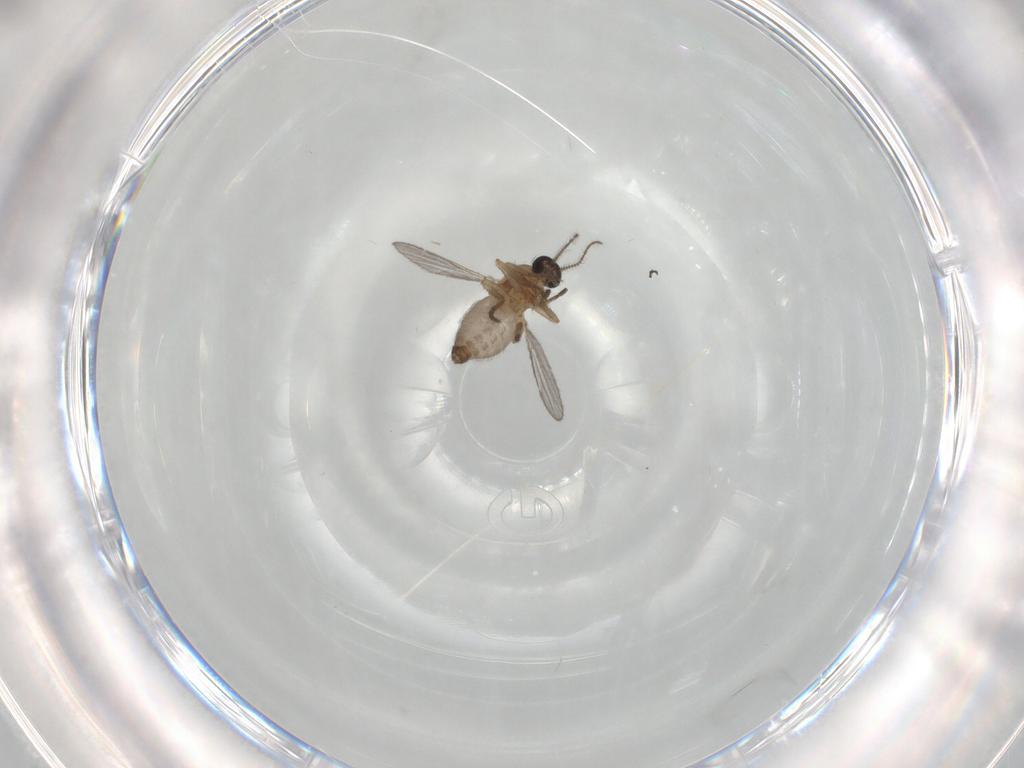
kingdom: Animalia
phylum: Arthropoda
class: Insecta
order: Diptera
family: Ceratopogonidae
